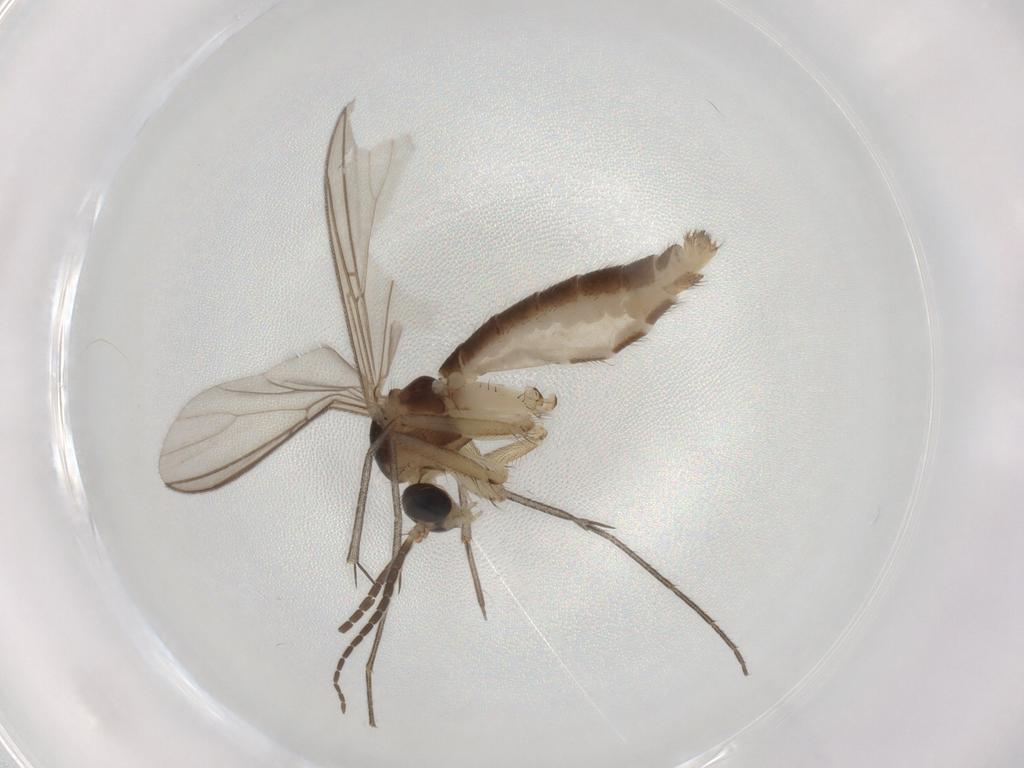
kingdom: Animalia
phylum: Arthropoda
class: Insecta
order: Diptera
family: Mycetophilidae
